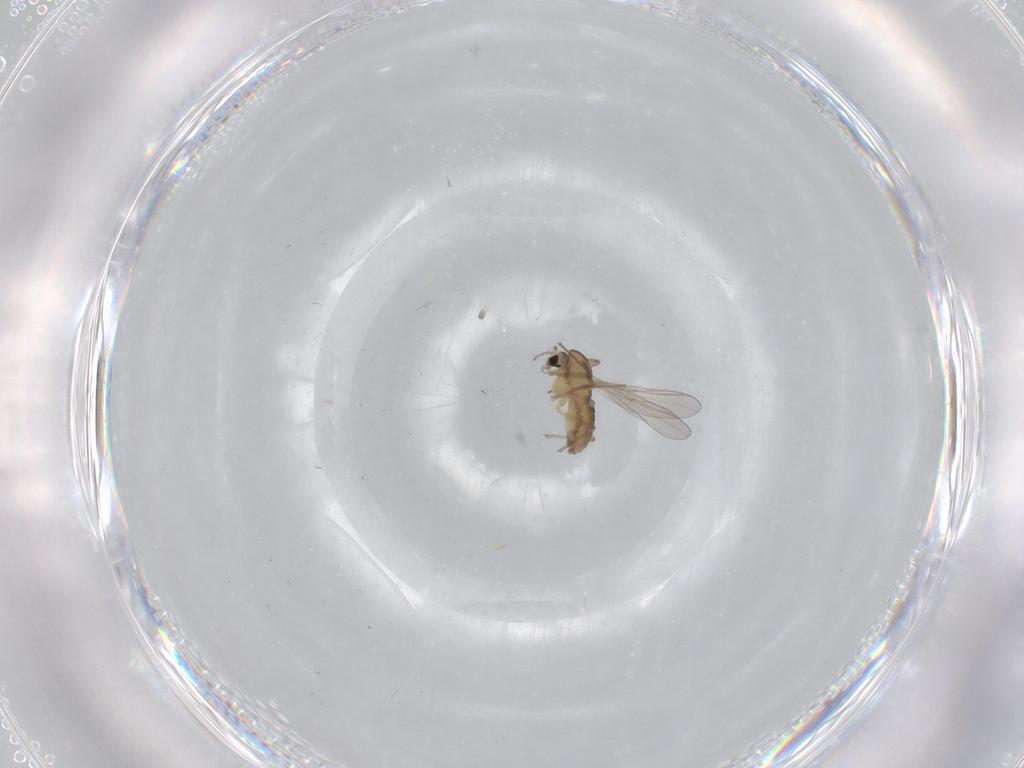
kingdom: Animalia
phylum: Arthropoda
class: Insecta
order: Diptera
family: Chironomidae
